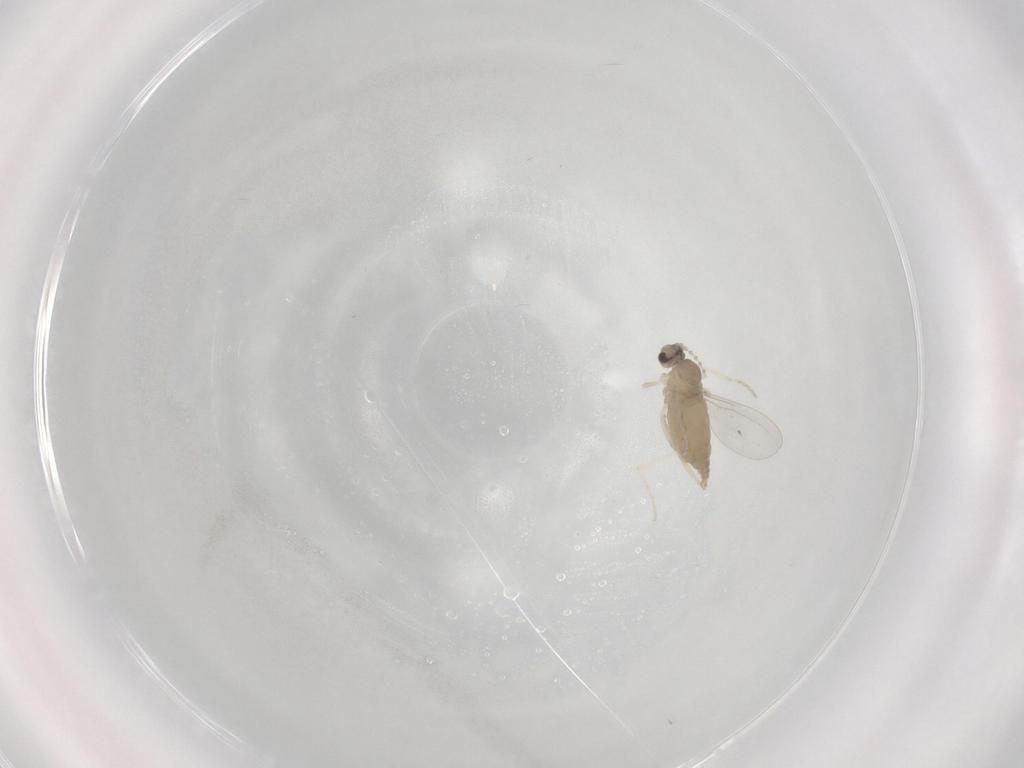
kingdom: Animalia
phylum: Arthropoda
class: Insecta
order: Diptera
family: Cecidomyiidae
